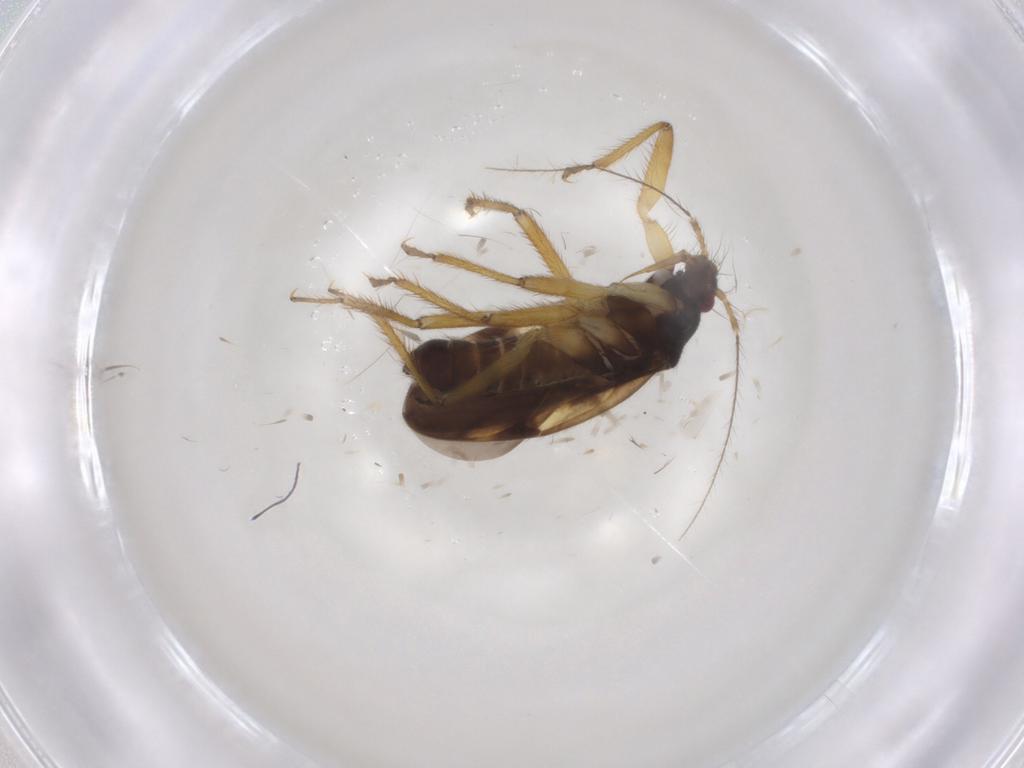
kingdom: Animalia
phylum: Arthropoda
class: Insecta
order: Hemiptera
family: Ceratocombidae
